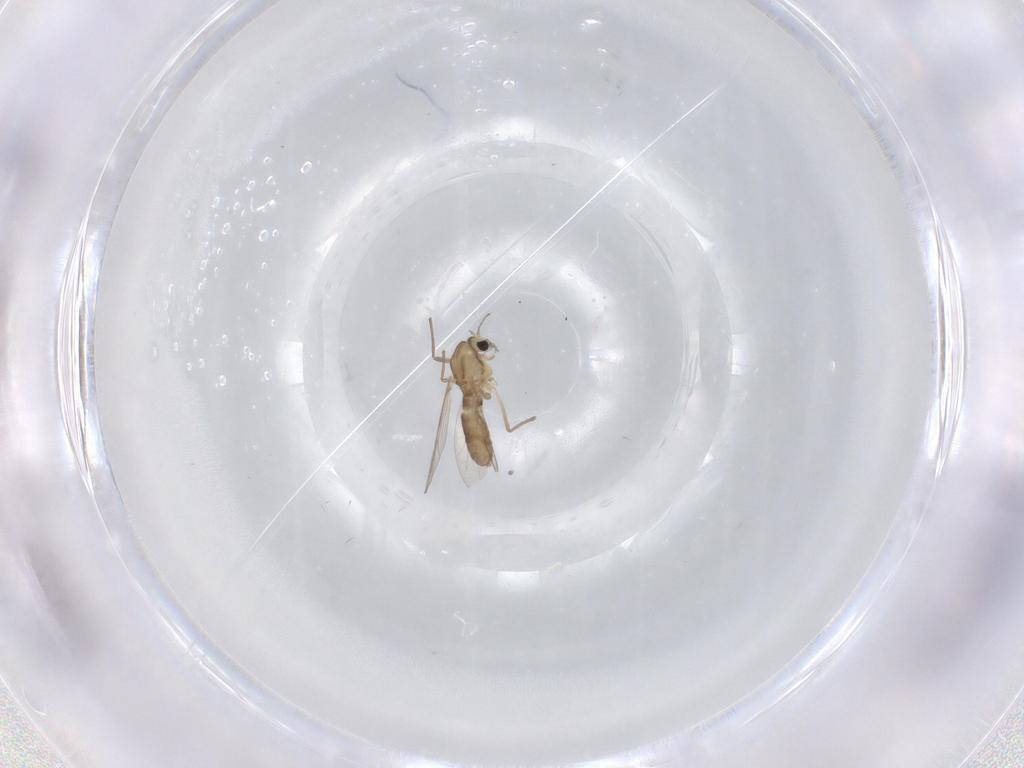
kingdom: Animalia
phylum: Arthropoda
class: Insecta
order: Diptera
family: Chironomidae
